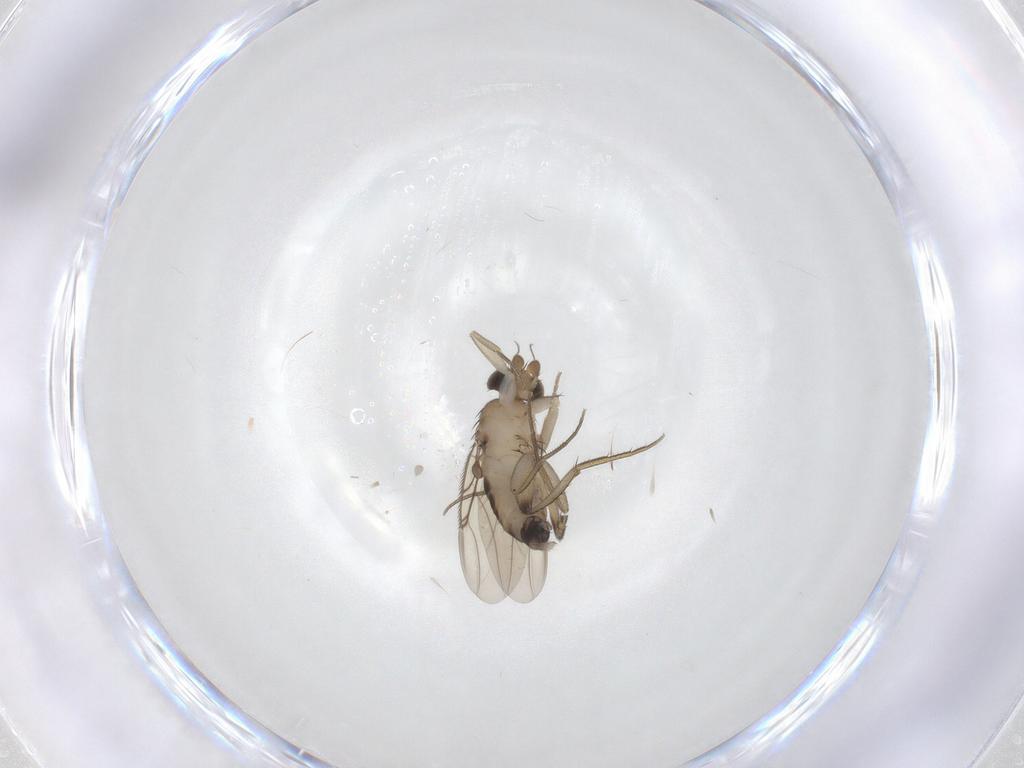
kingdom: Animalia
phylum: Arthropoda
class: Insecta
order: Diptera
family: Phoridae
